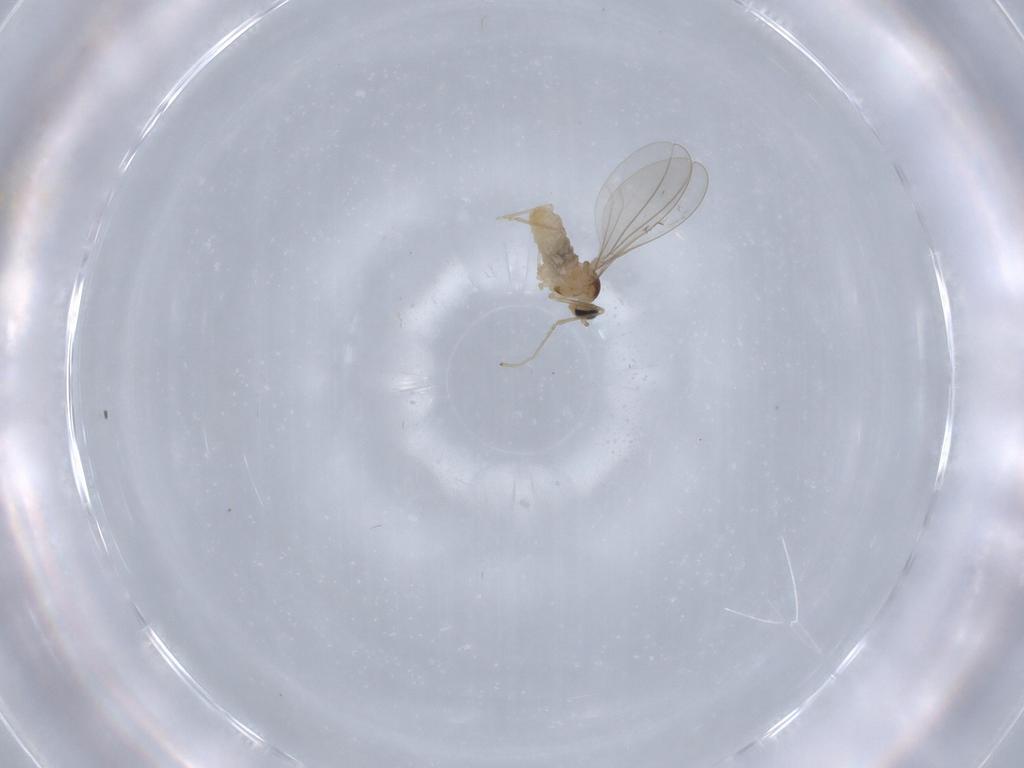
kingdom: Animalia
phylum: Arthropoda
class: Insecta
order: Diptera
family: Cecidomyiidae
